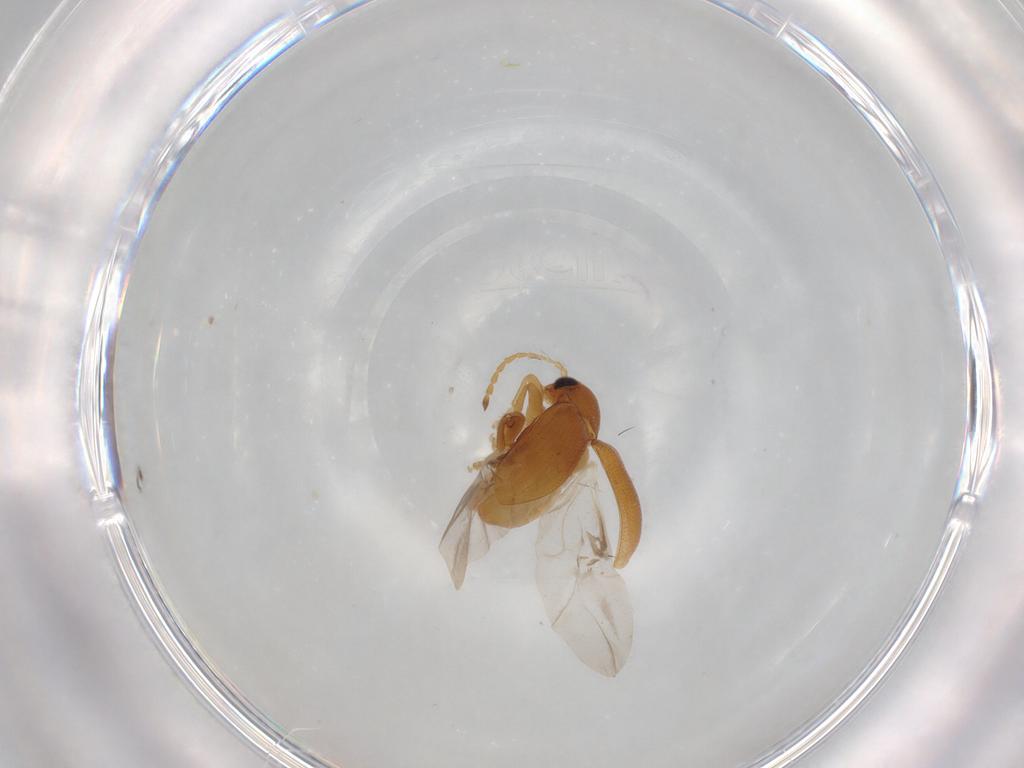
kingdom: Animalia
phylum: Arthropoda
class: Insecta
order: Coleoptera
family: Chrysomelidae
